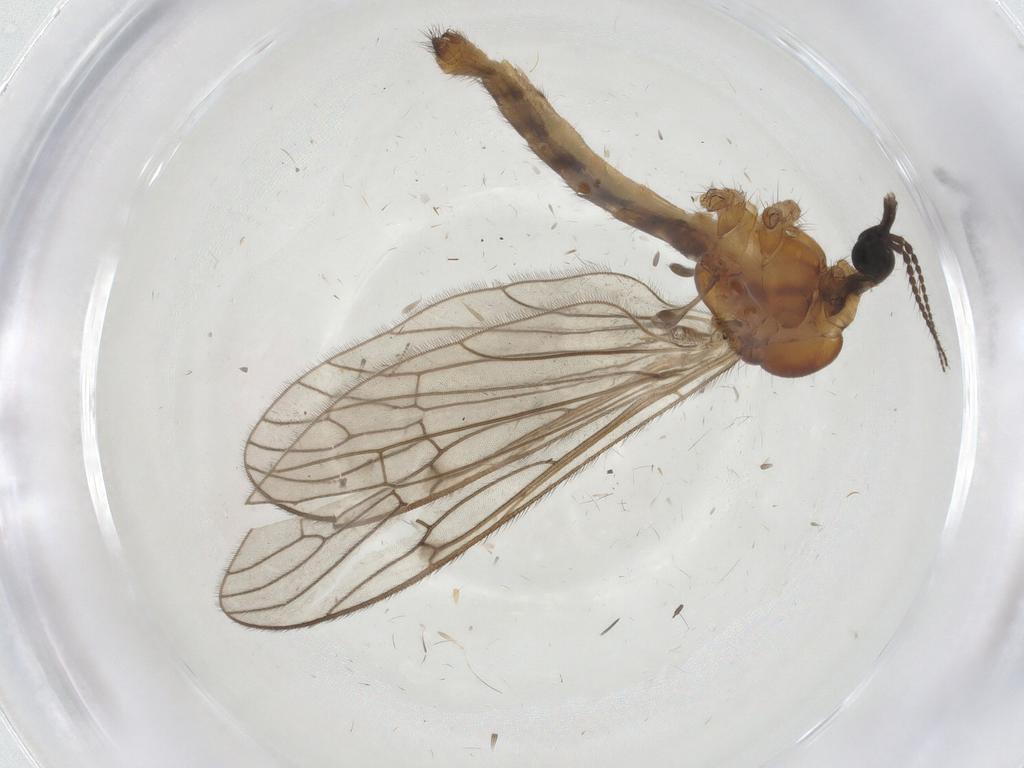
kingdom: Animalia
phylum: Arthropoda
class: Insecta
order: Diptera
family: Limoniidae
